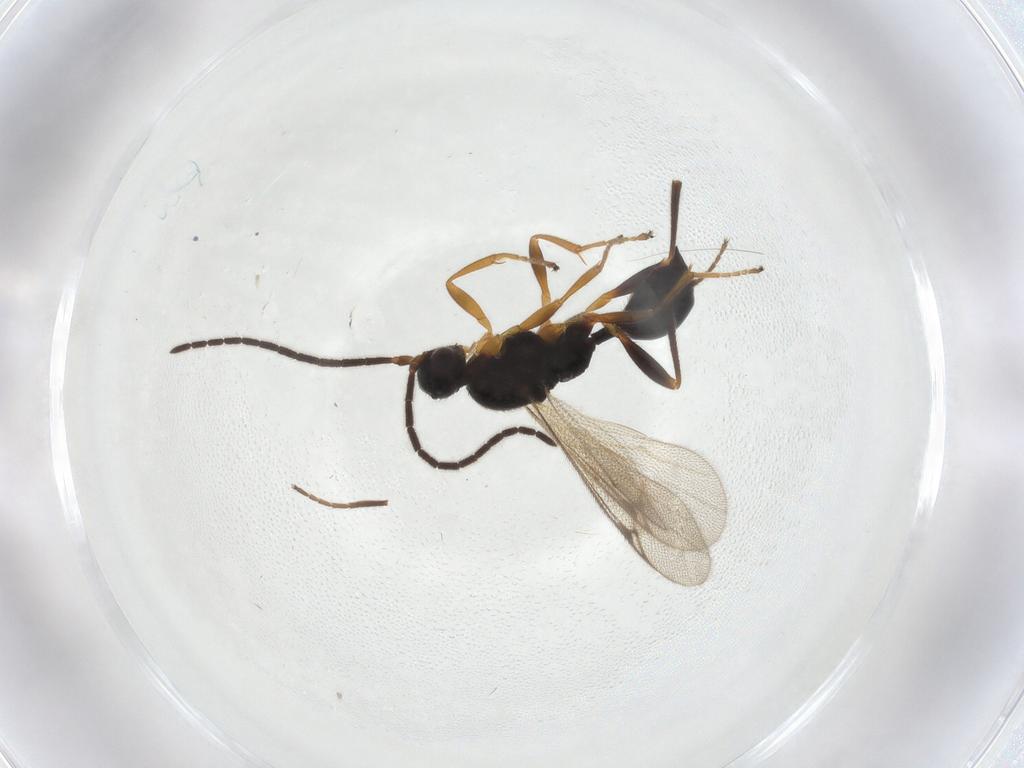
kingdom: Animalia
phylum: Arthropoda
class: Insecta
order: Hymenoptera
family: Proctotrupidae
